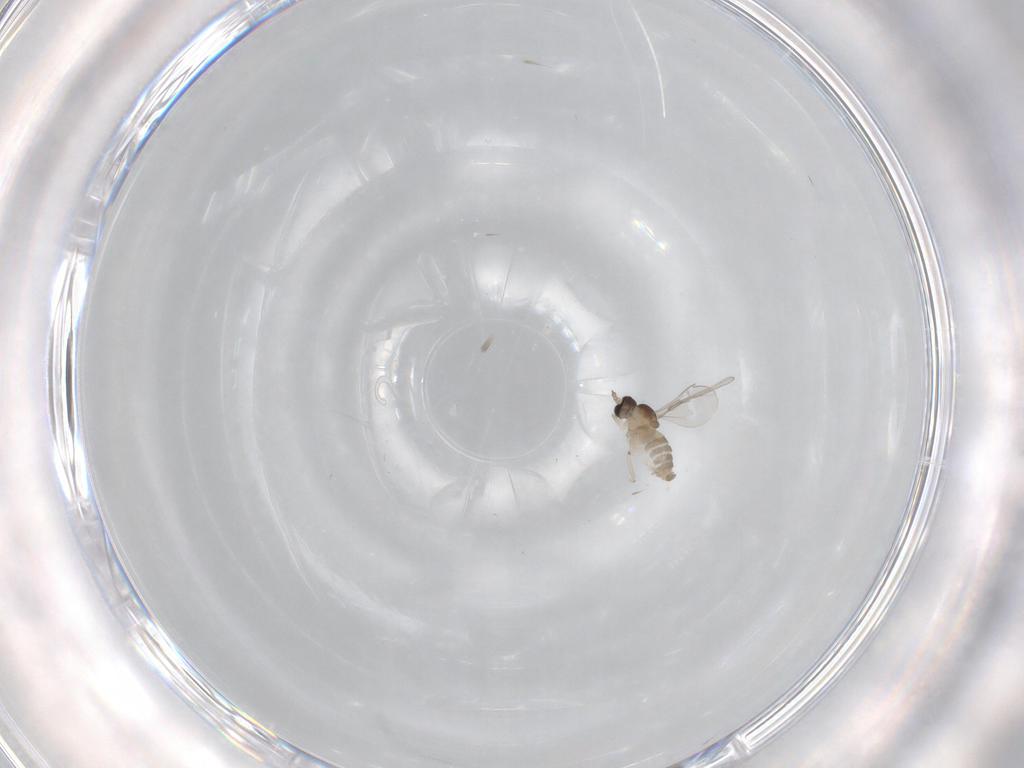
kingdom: Animalia
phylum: Arthropoda
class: Insecta
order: Diptera
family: Cecidomyiidae
